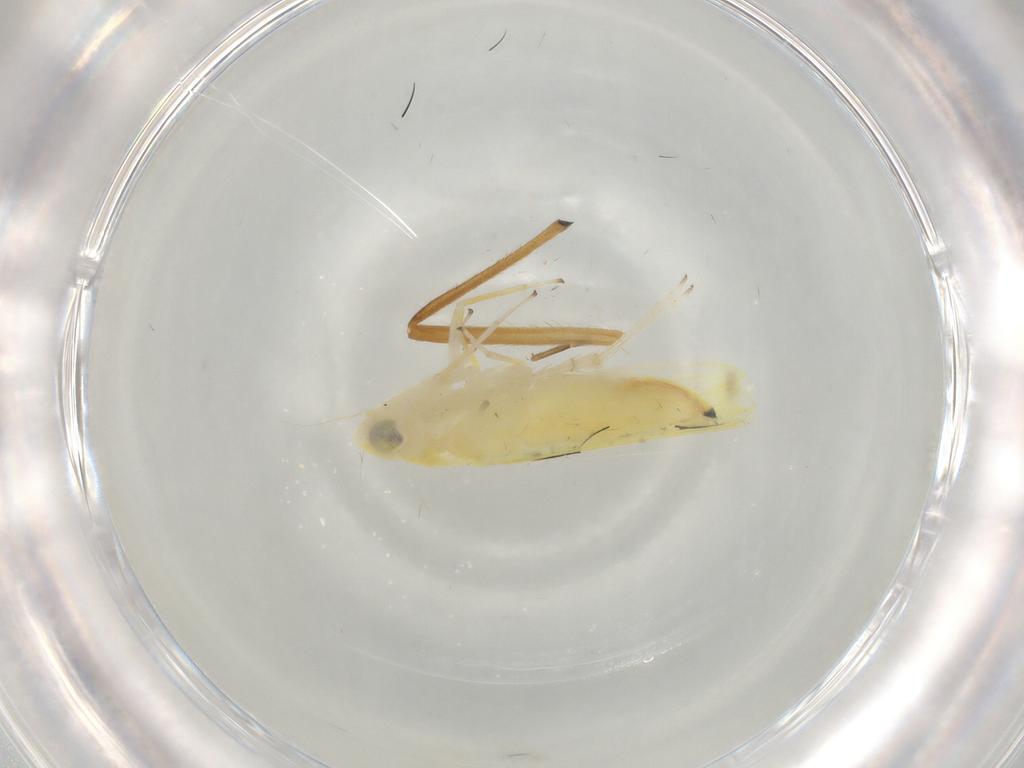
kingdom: Animalia
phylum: Arthropoda
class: Insecta
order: Hemiptera
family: Cicadellidae
